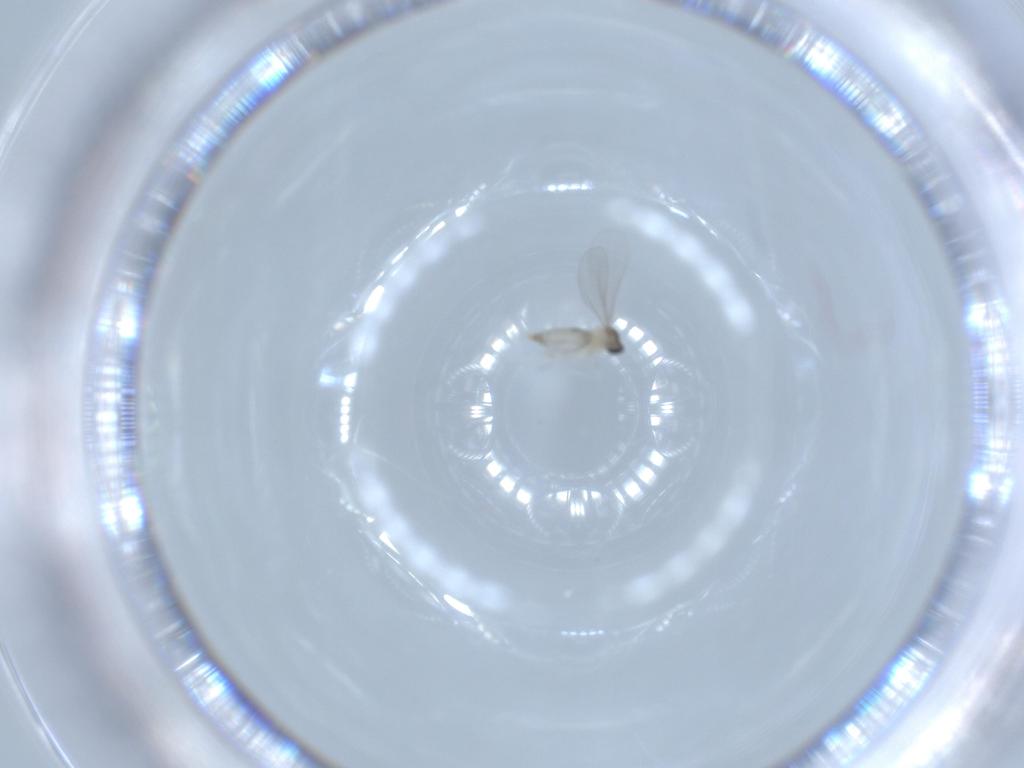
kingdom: Animalia
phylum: Arthropoda
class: Insecta
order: Diptera
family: Cecidomyiidae
